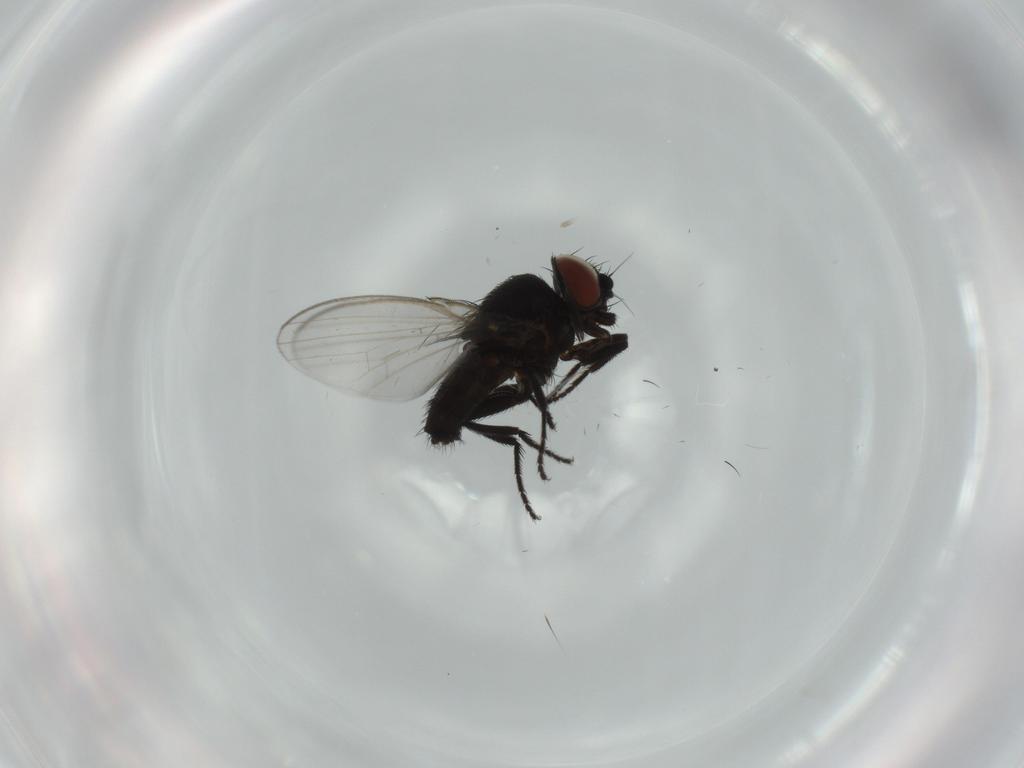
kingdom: Animalia
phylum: Arthropoda
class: Insecta
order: Diptera
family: Milichiidae
